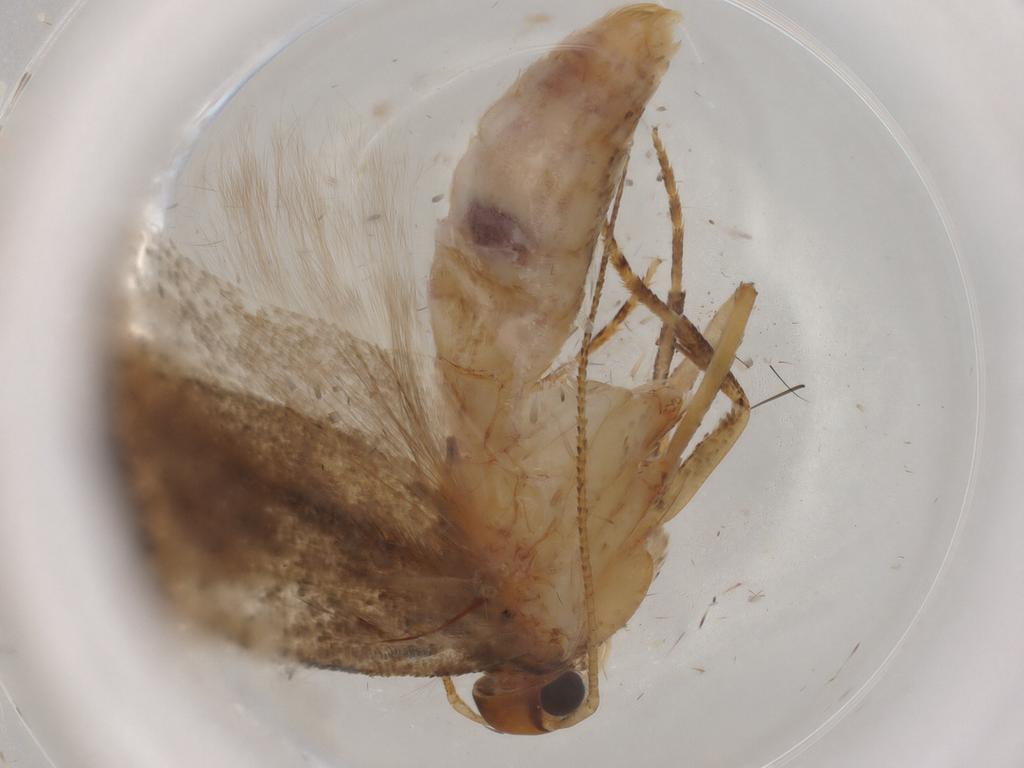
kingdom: Animalia
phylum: Arthropoda
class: Insecta
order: Lepidoptera
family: Gelechiidae
